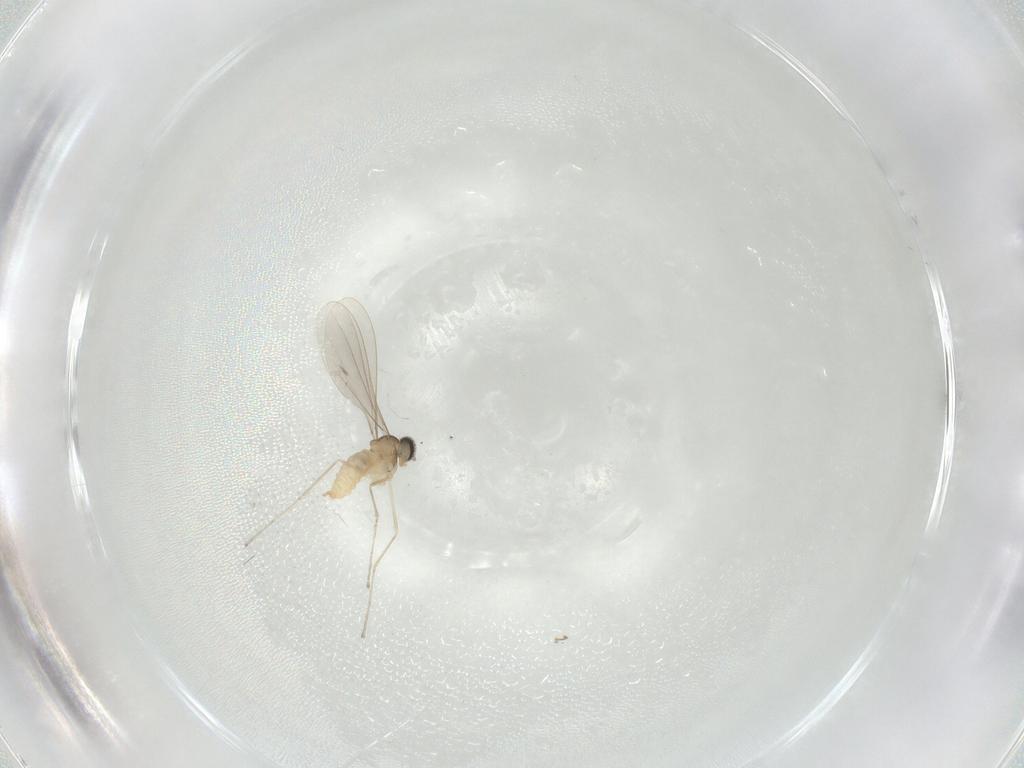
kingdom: Animalia
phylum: Arthropoda
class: Insecta
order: Diptera
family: Cecidomyiidae
